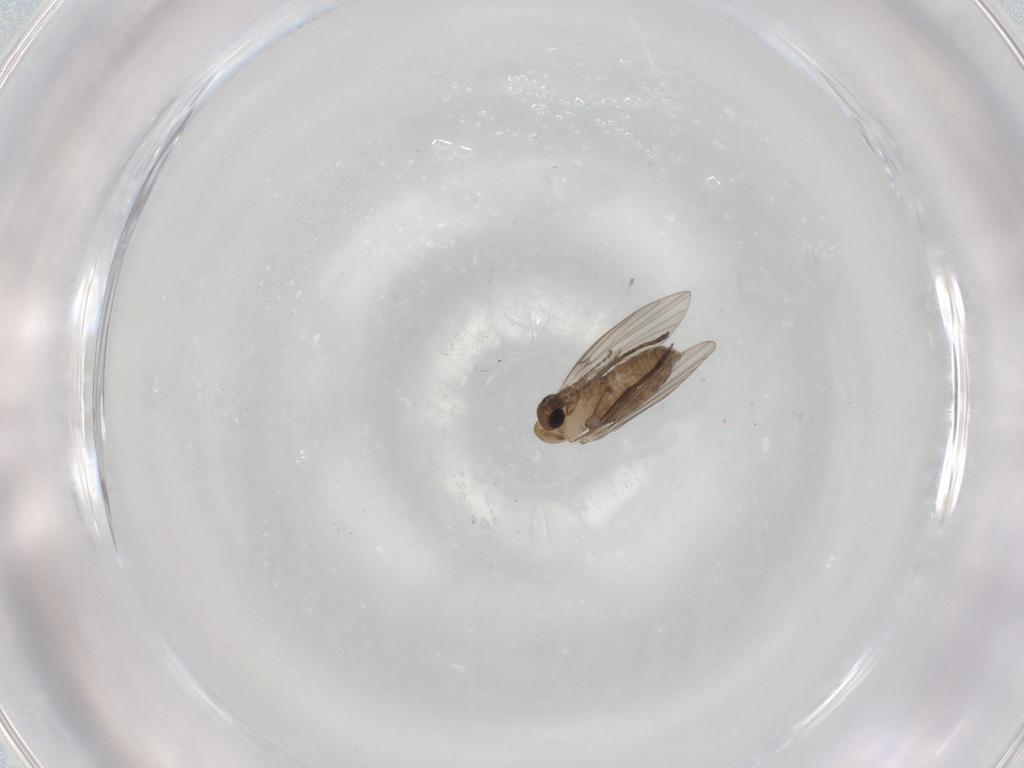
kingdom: Animalia
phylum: Arthropoda
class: Insecta
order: Diptera
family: Psychodidae
